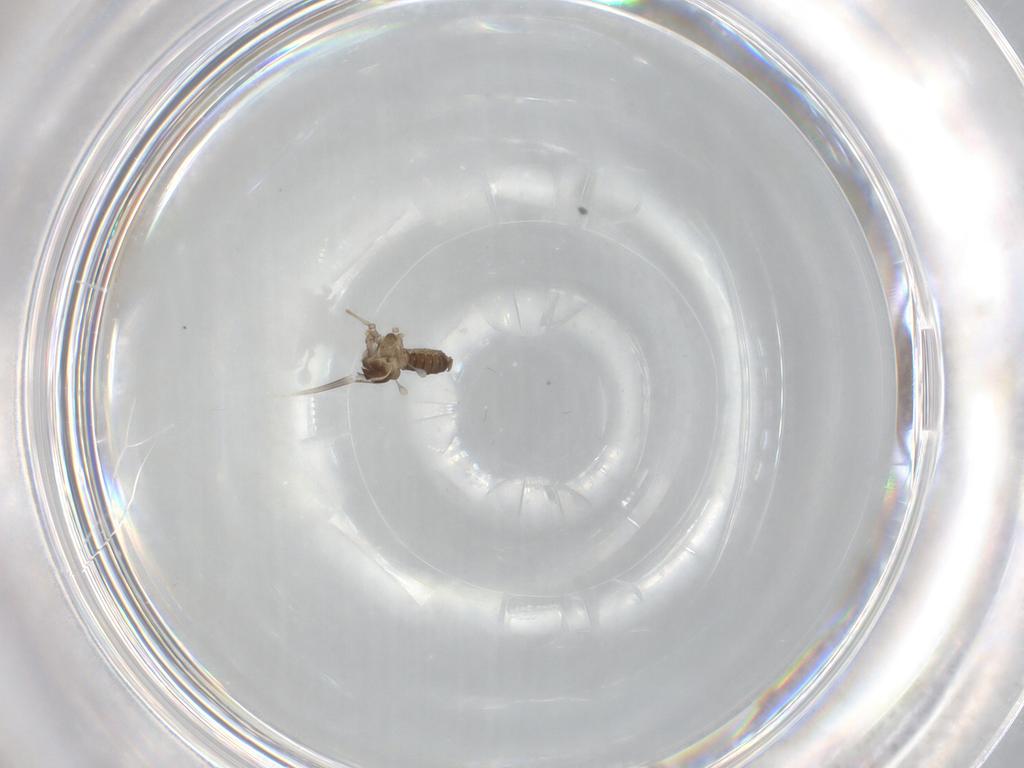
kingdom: Animalia
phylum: Arthropoda
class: Insecta
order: Diptera
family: Cecidomyiidae
